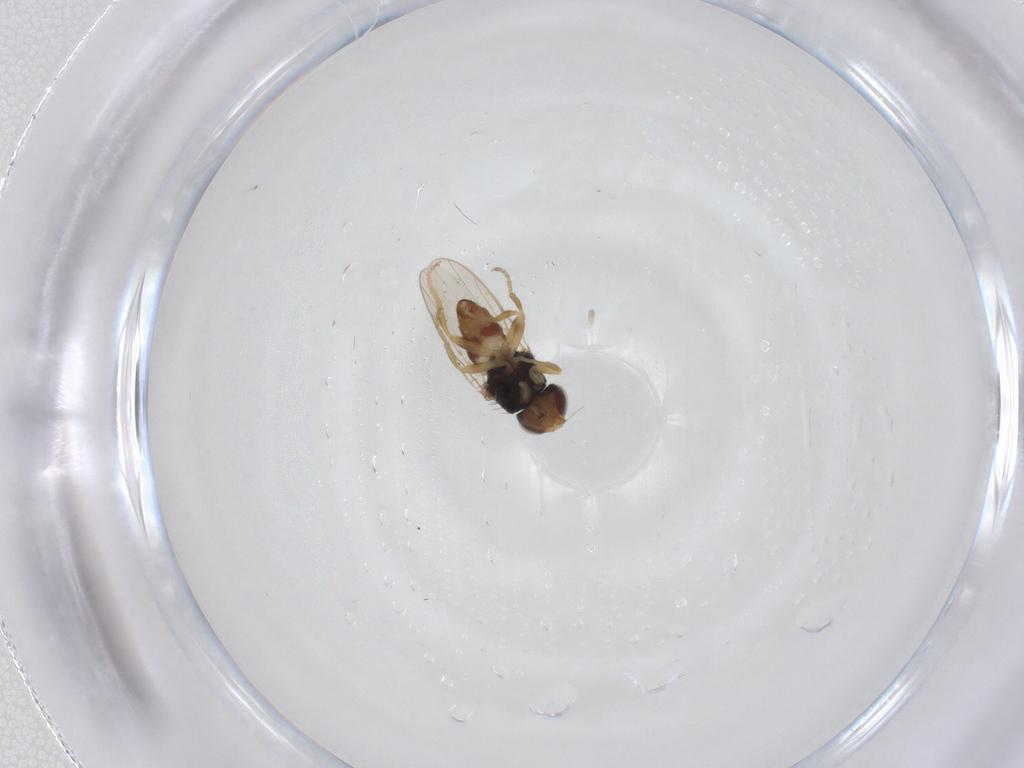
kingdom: Animalia
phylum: Arthropoda
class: Insecta
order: Diptera
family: Chloropidae
